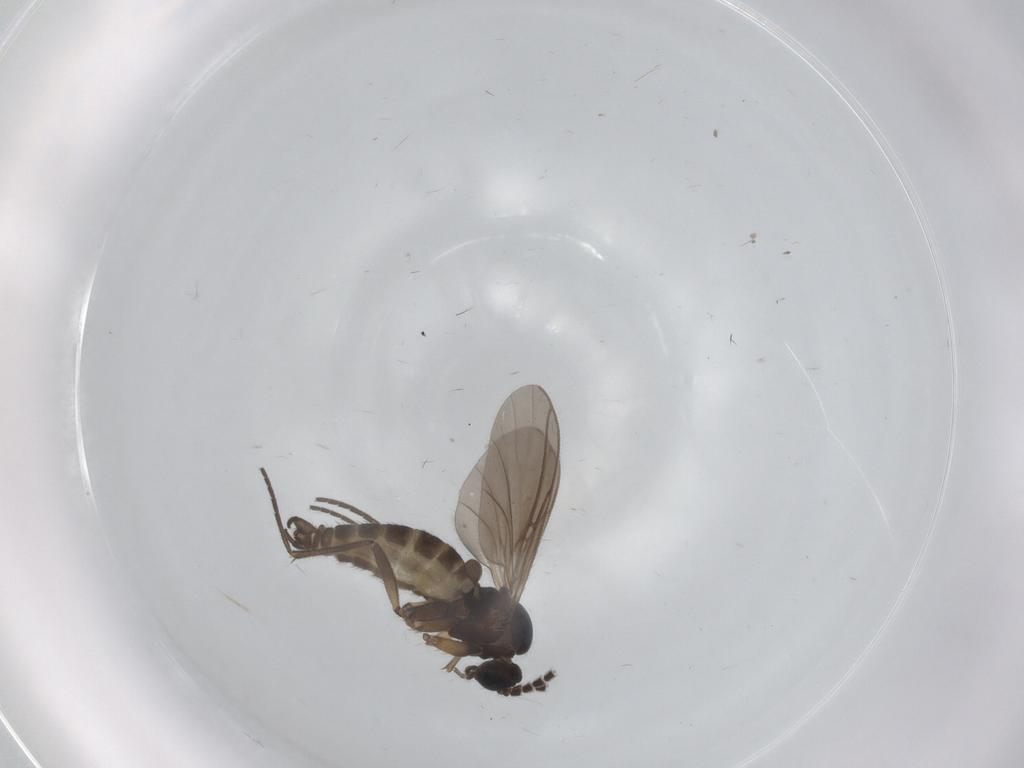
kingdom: Animalia
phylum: Arthropoda
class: Insecta
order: Diptera
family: Sciaridae
